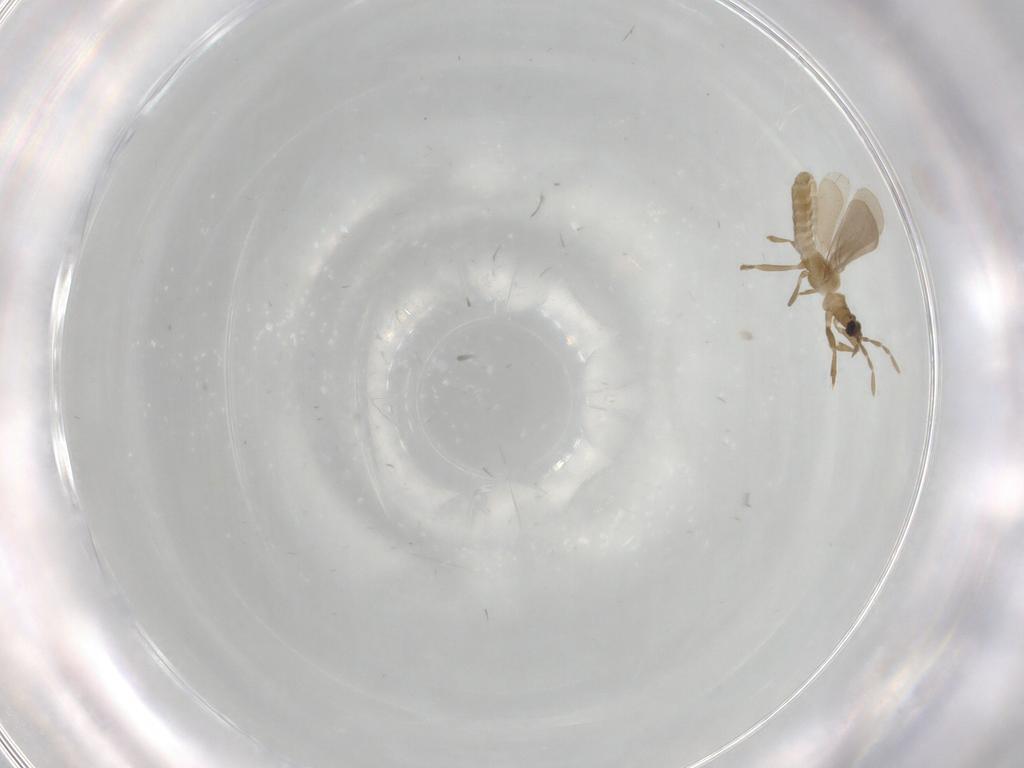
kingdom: Animalia
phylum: Arthropoda
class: Insecta
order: Hemiptera
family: Enicocephalidae
